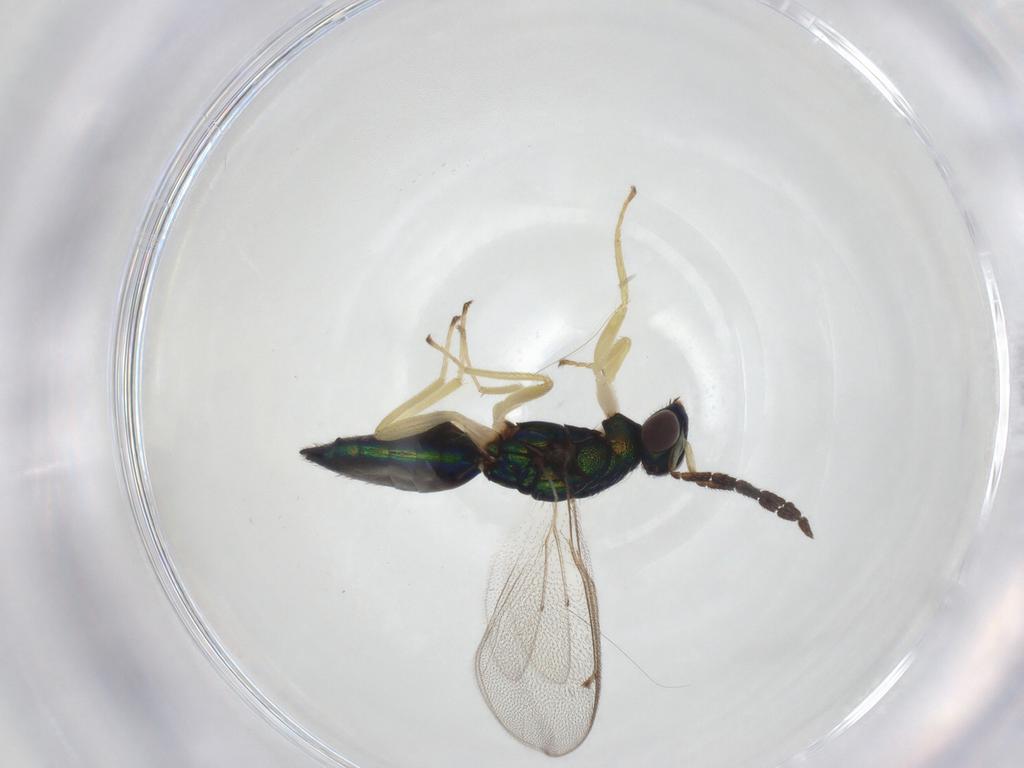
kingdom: Animalia
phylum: Arthropoda
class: Insecta
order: Hymenoptera
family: Eulophidae
